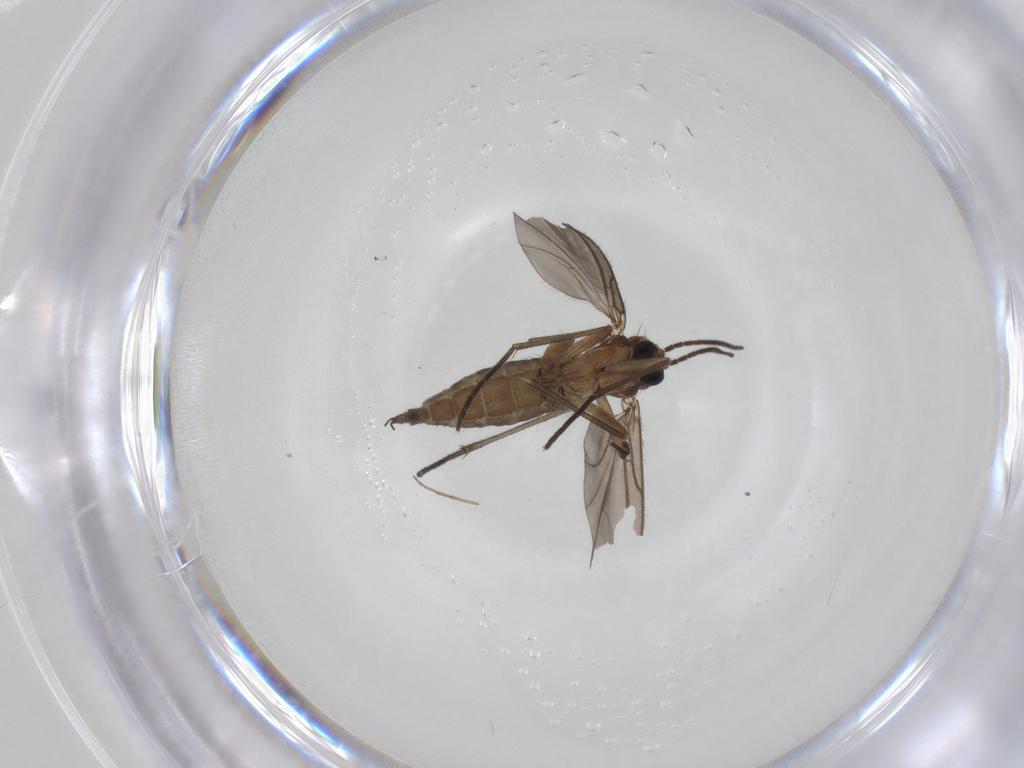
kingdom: Animalia
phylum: Arthropoda
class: Insecta
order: Diptera
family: Sciaridae
